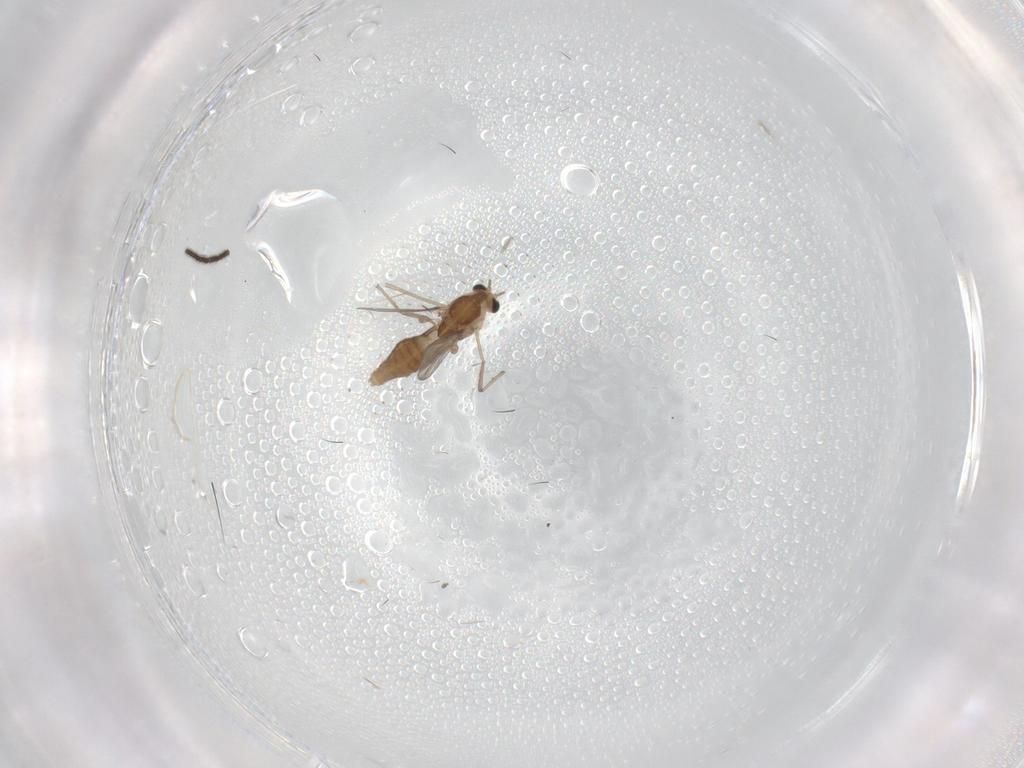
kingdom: Animalia
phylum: Arthropoda
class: Insecta
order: Diptera
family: Chironomidae
